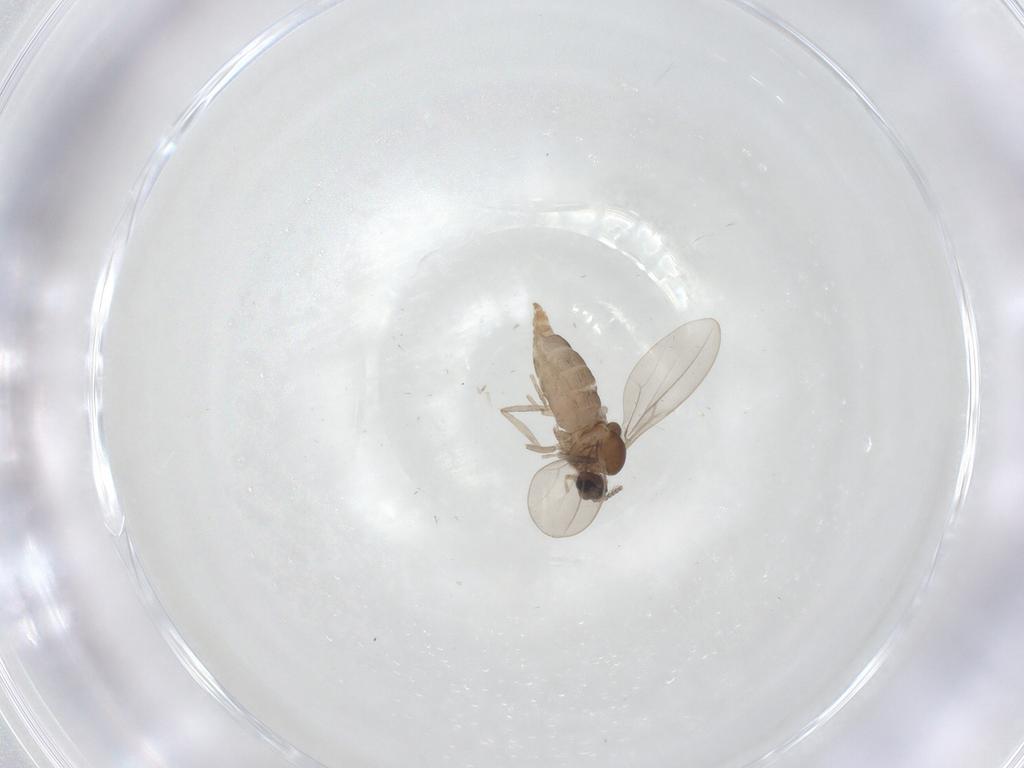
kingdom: Animalia
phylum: Arthropoda
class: Insecta
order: Diptera
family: Cecidomyiidae
